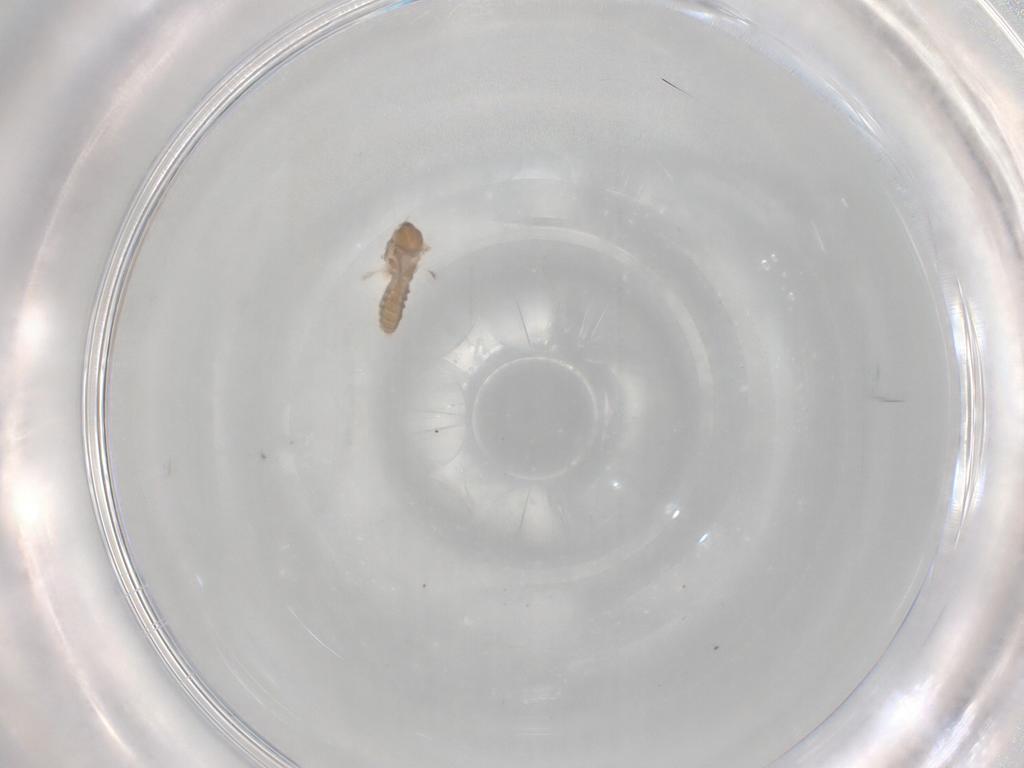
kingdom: Animalia
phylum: Arthropoda
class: Insecta
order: Diptera
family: Cecidomyiidae
